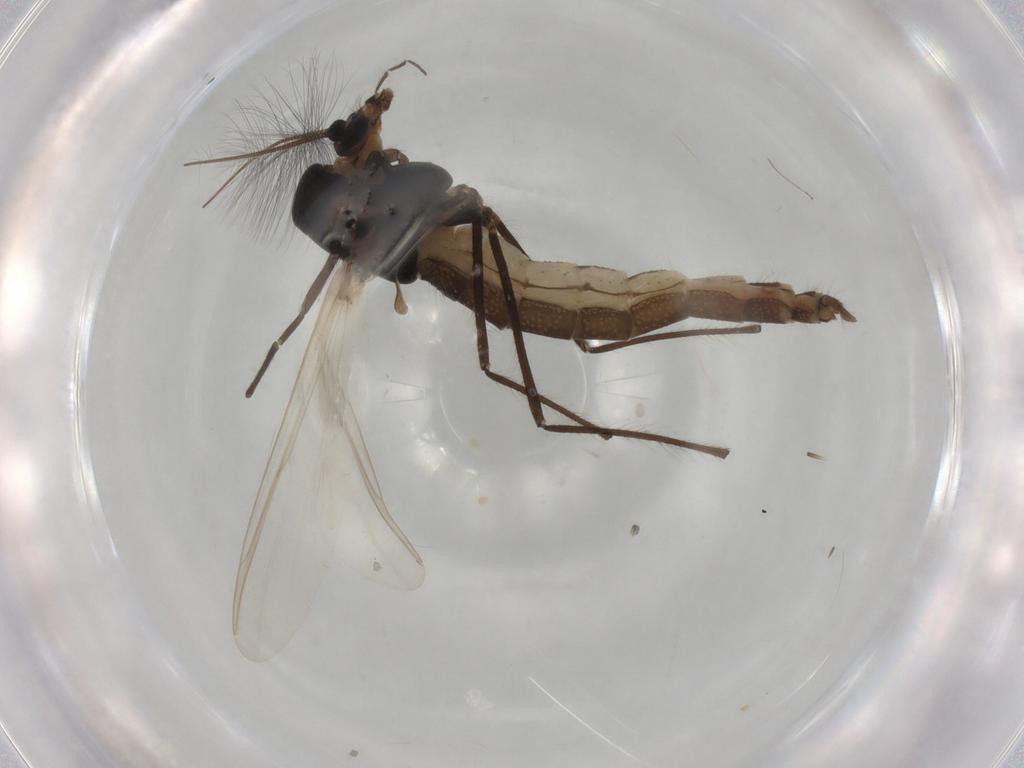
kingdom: Animalia
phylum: Arthropoda
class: Insecta
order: Diptera
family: Hybotidae
